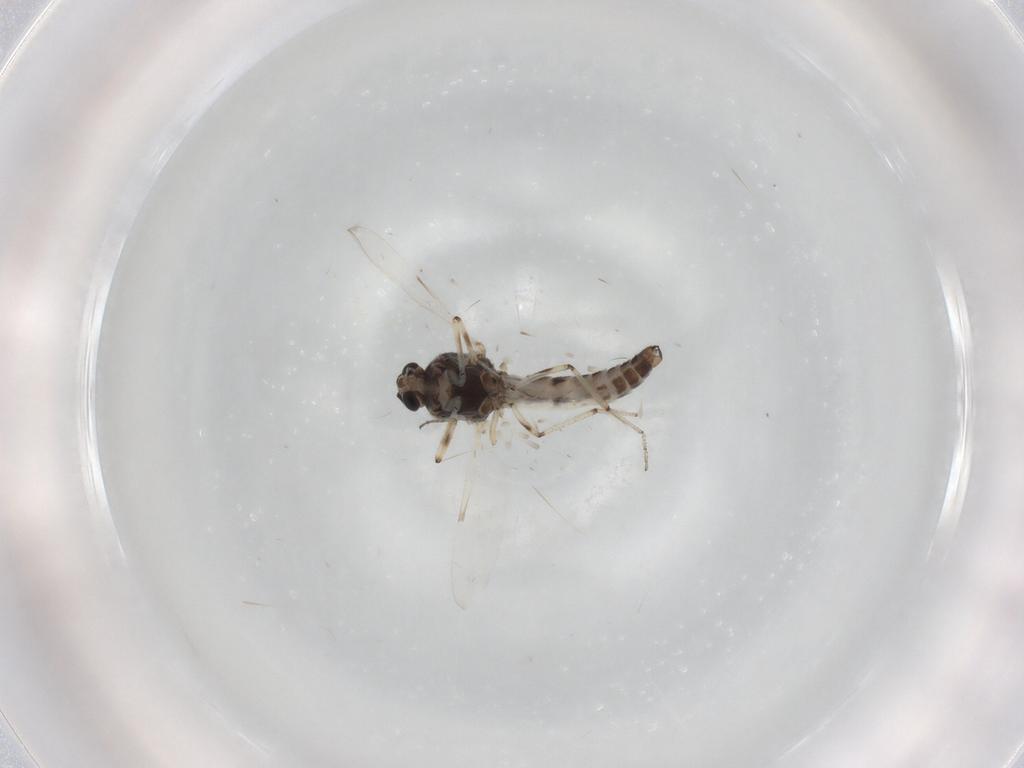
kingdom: Animalia
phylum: Arthropoda
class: Insecta
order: Diptera
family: Ceratopogonidae
